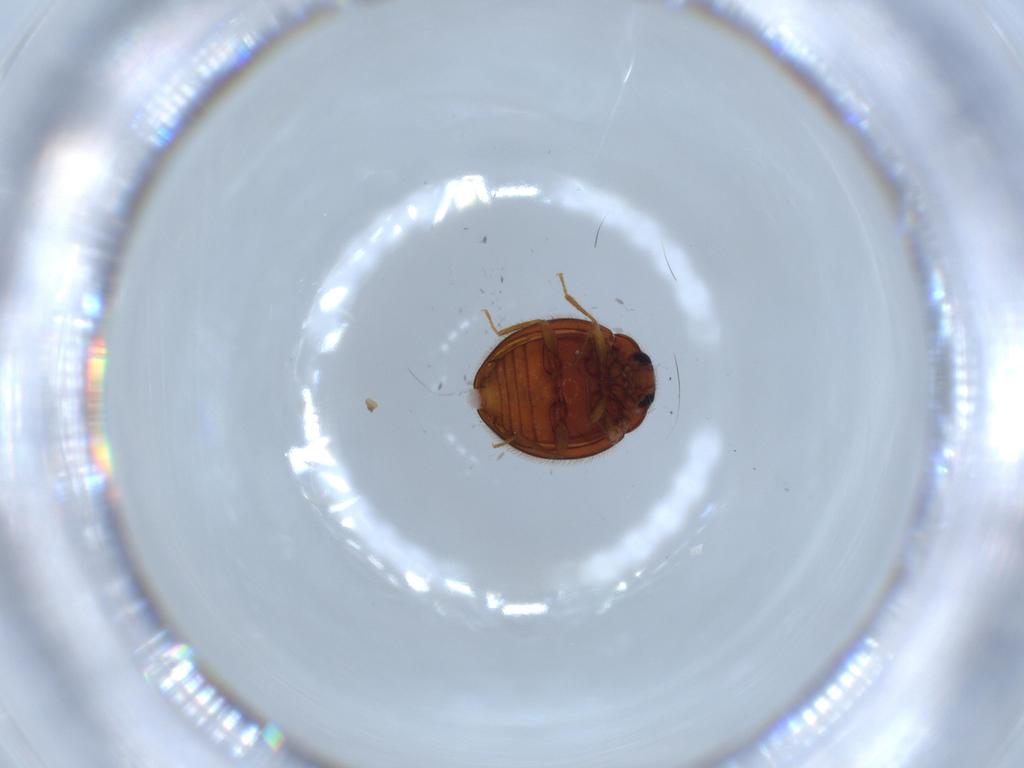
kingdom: Animalia
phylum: Arthropoda
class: Insecta
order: Coleoptera
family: Anamorphidae
